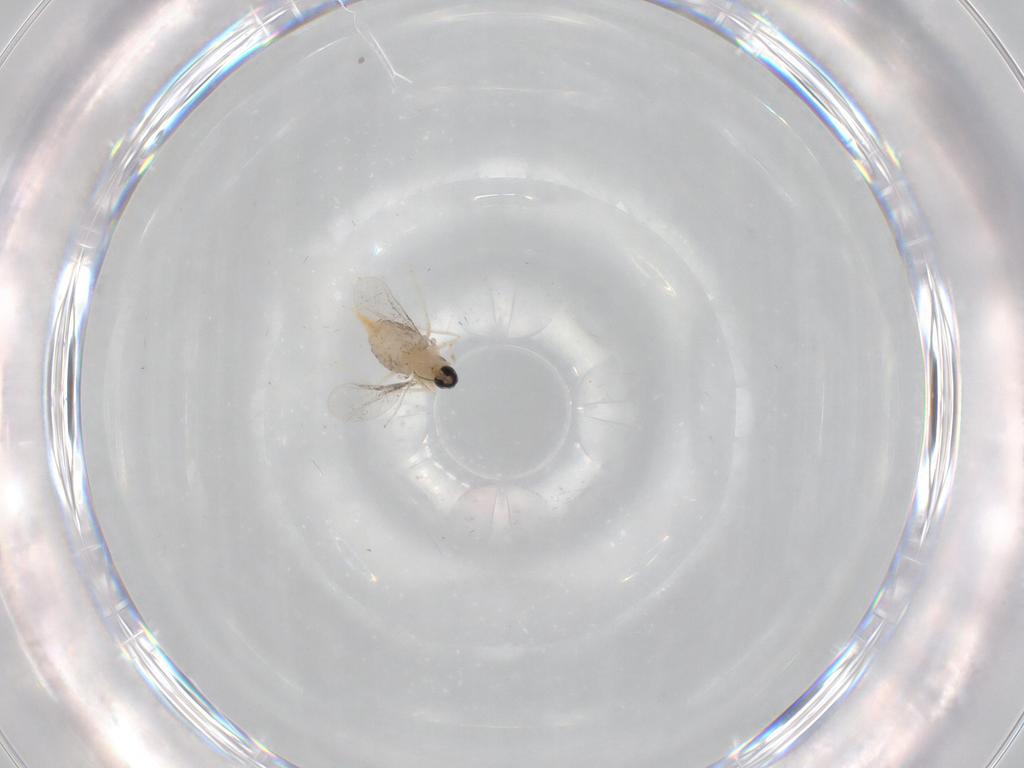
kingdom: Animalia
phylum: Arthropoda
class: Insecta
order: Diptera
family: Chironomidae
